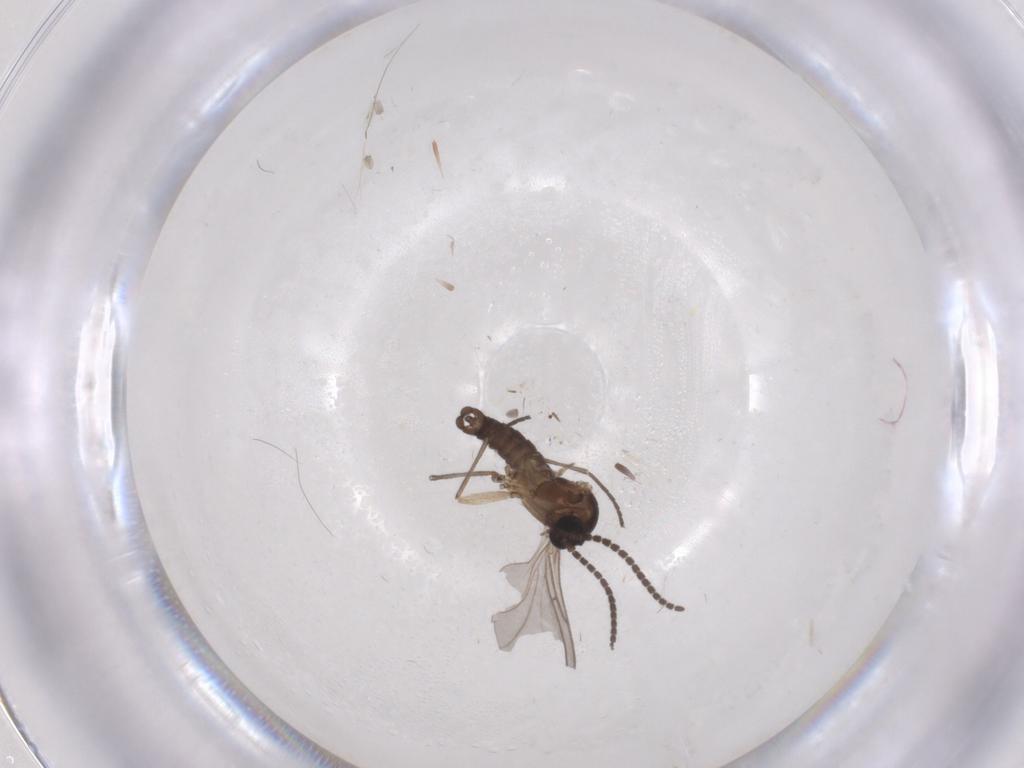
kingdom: Animalia
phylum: Arthropoda
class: Insecta
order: Diptera
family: Sciaridae
